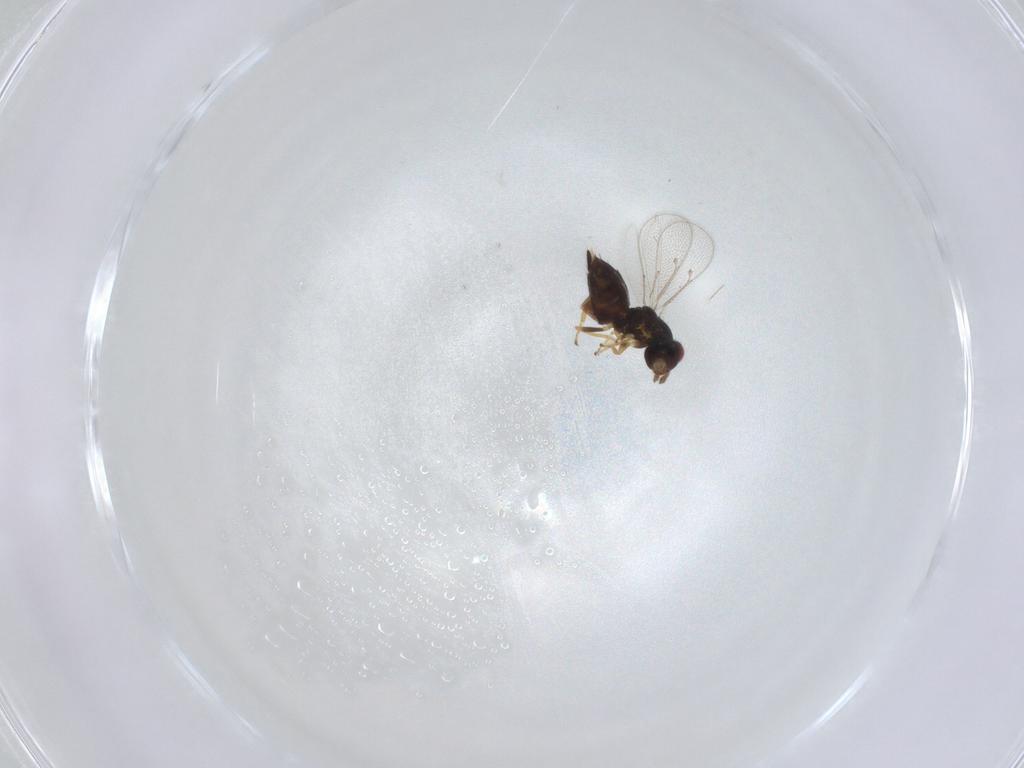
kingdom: Animalia
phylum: Arthropoda
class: Insecta
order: Hymenoptera
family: Eulophidae
